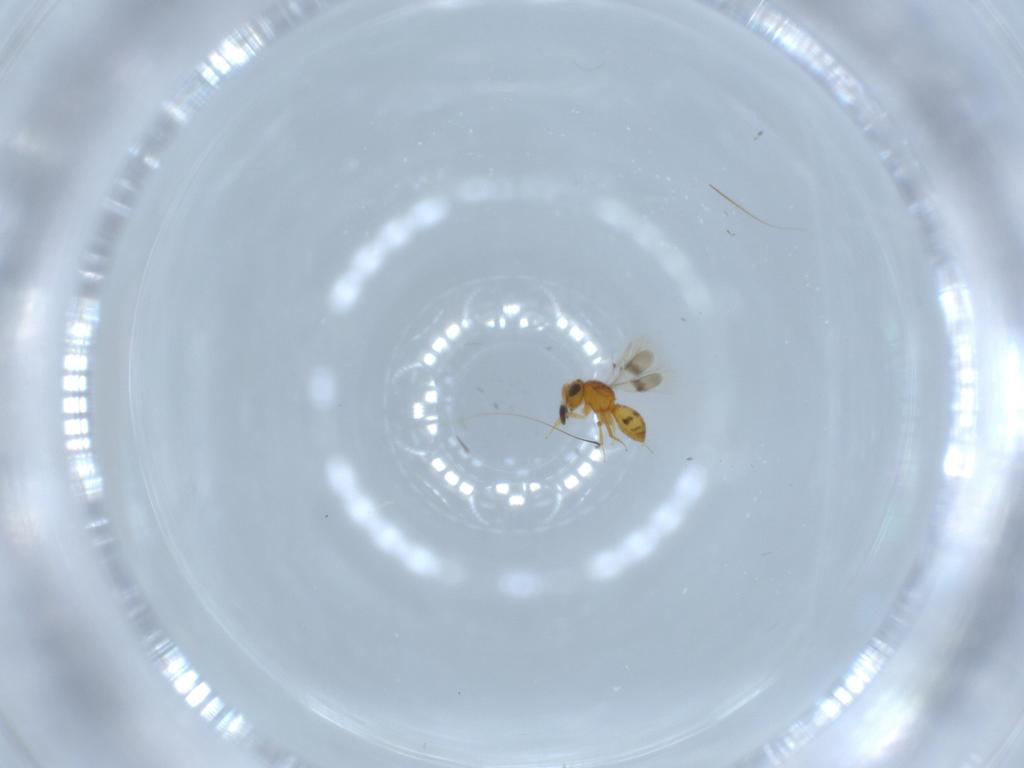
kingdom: Animalia
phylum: Arthropoda
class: Insecta
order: Hymenoptera
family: Scelionidae
